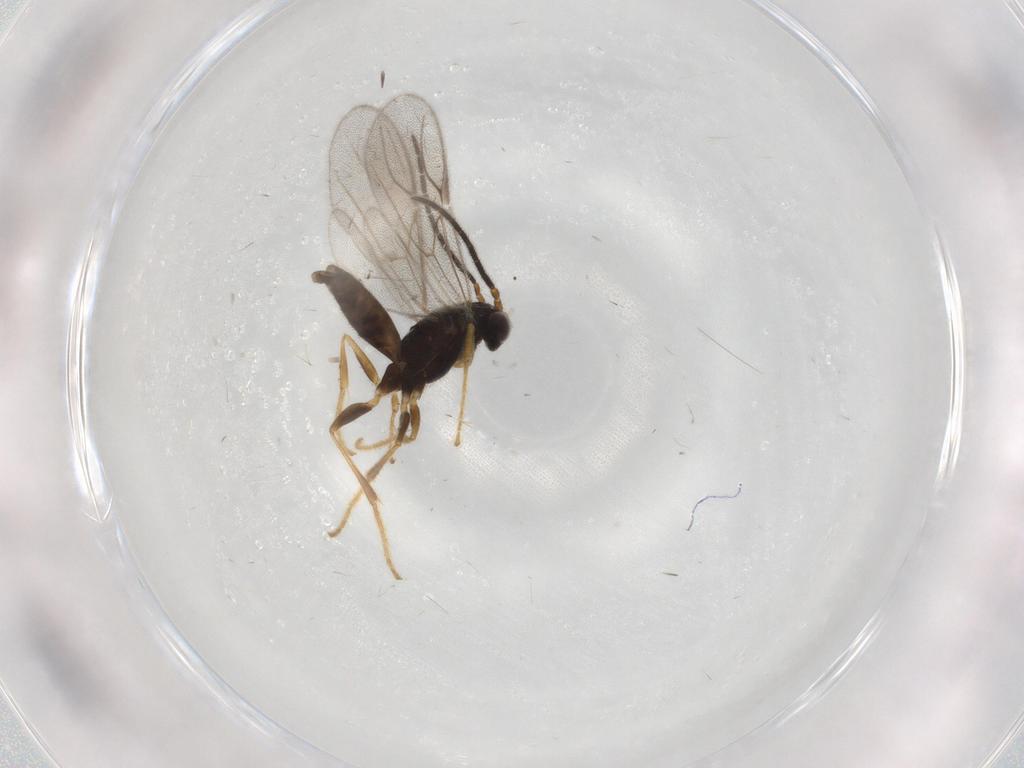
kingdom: Animalia
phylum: Arthropoda
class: Insecta
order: Hymenoptera
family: Dryinidae
